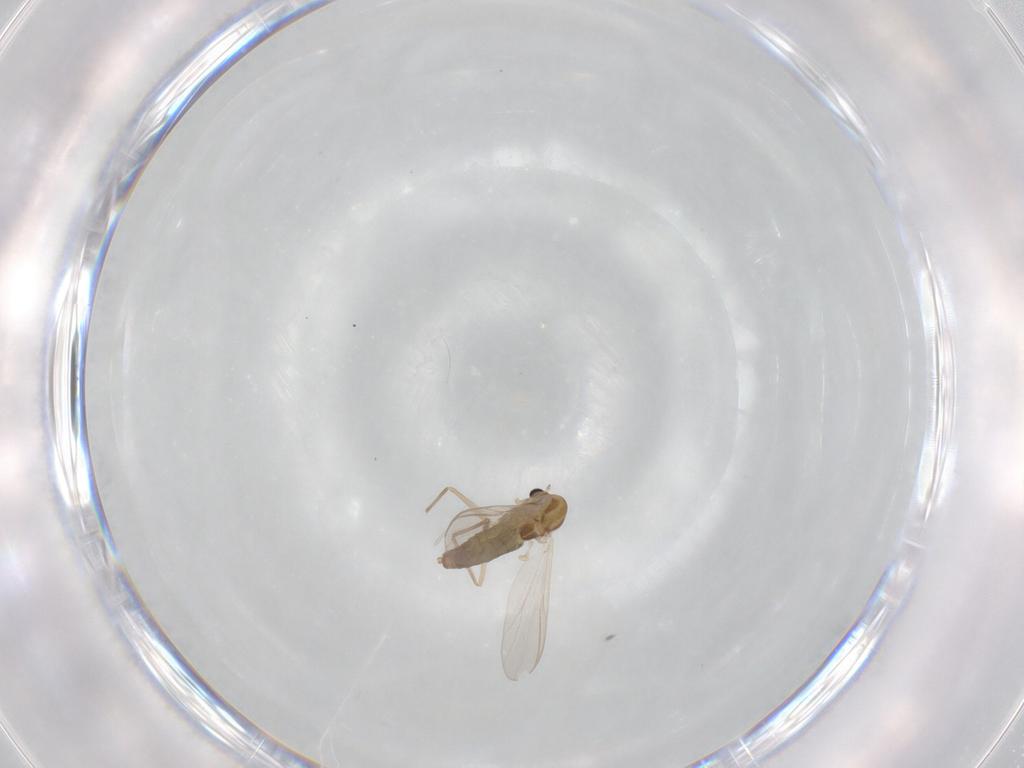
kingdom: Animalia
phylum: Arthropoda
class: Insecta
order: Diptera
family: Chironomidae
